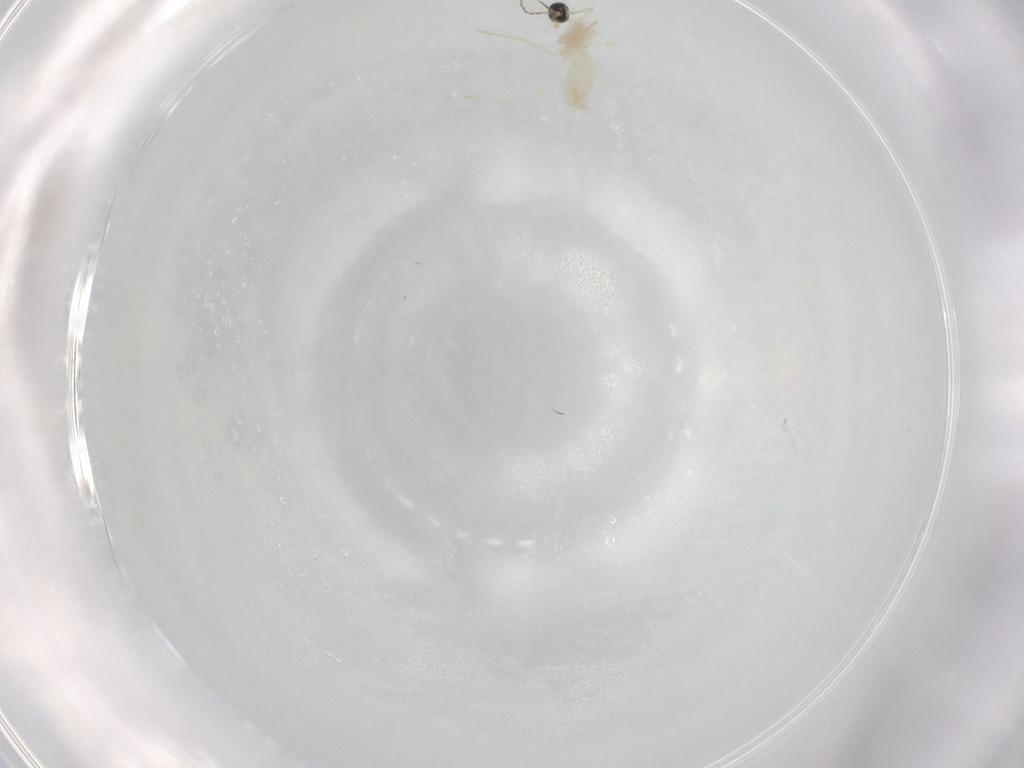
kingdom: Animalia
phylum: Arthropoda
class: Insecta
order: Diptera
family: Cecidomyiidae
